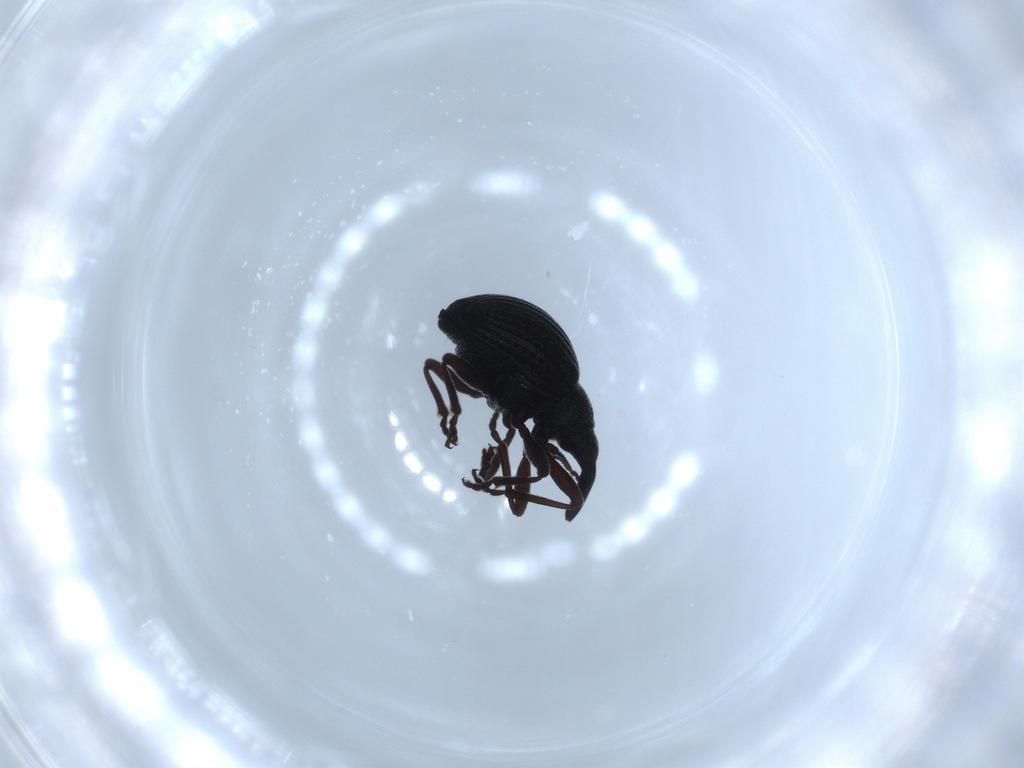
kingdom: Animalia
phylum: Arthropoda
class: Insecta
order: Coleoptera
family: Brentidae
